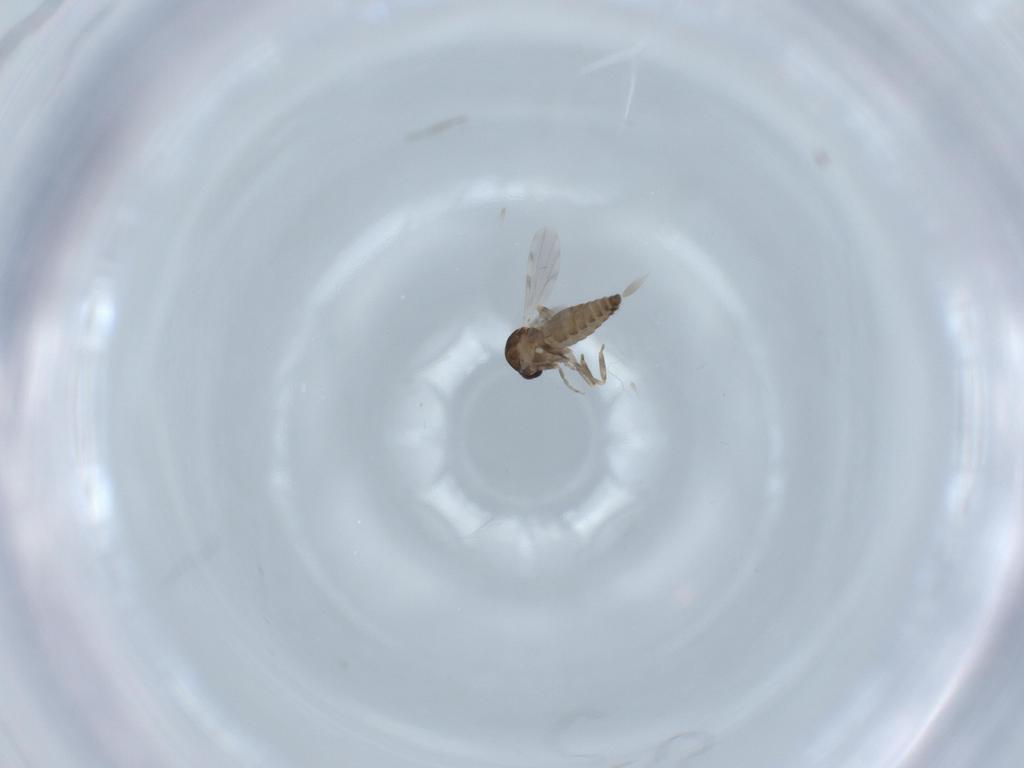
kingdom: Animalia
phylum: Arthropoda
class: Insecta
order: Diptera
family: Ceratopogonidae
